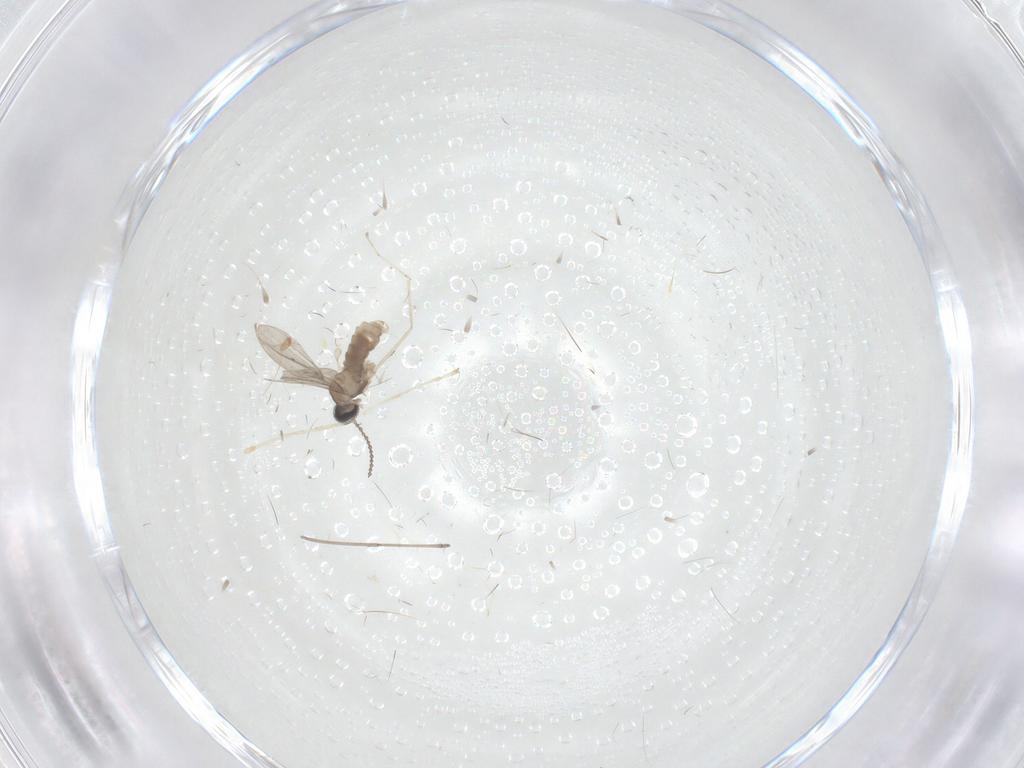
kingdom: Animalia
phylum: Arthropoda
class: Insecta
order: Diptera
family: Cecidomyiidae
